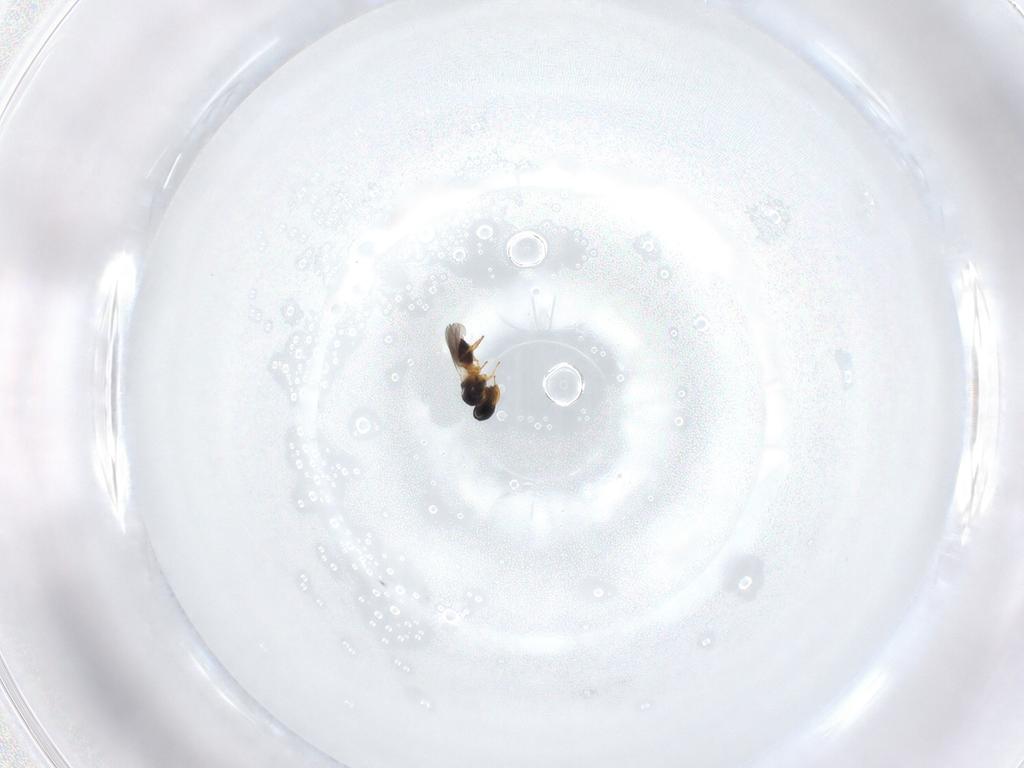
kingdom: Animalia
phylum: Arthropoda
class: Insecta
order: Hymenoptera
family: Platygastridae
